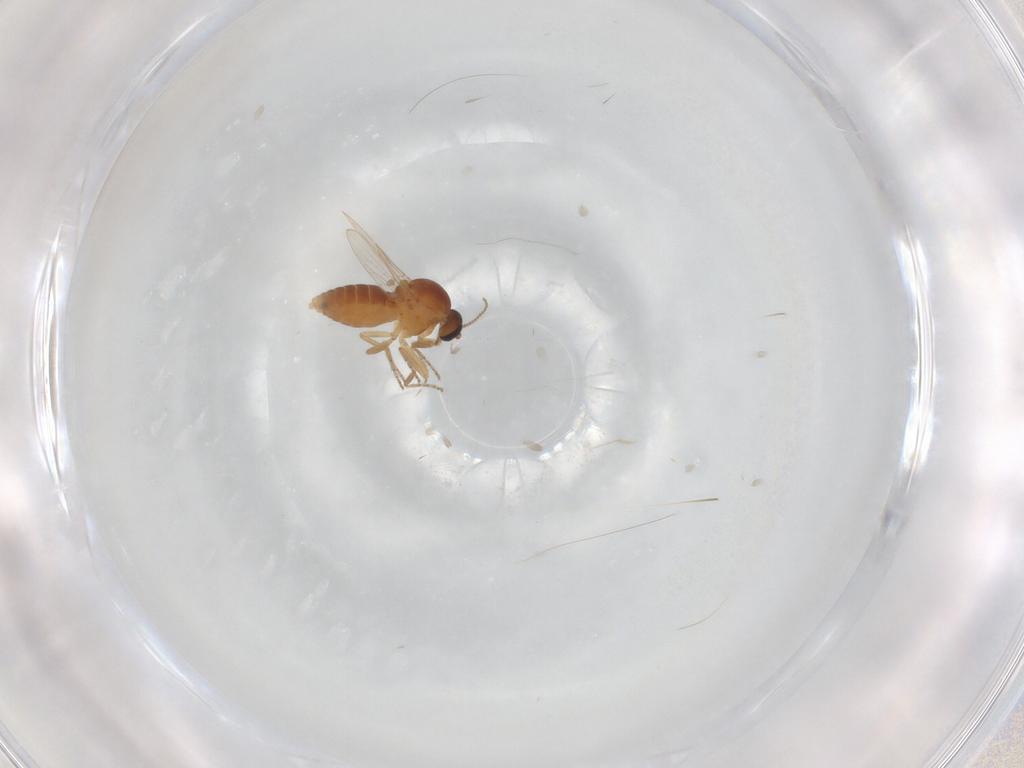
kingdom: Animalia
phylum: Arthropoda
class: Insecta
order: Diptera
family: Ceratopogonidae
